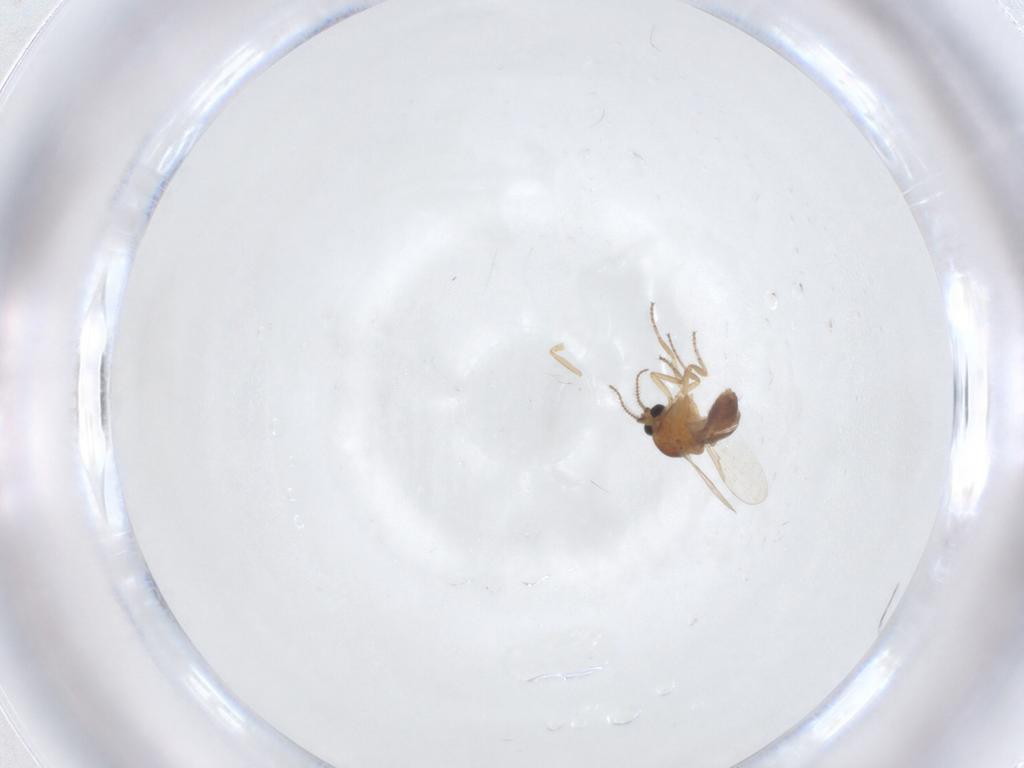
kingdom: Animalia
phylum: Arthropoda
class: Insecta
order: Diptera
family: Ceratopogonidae
